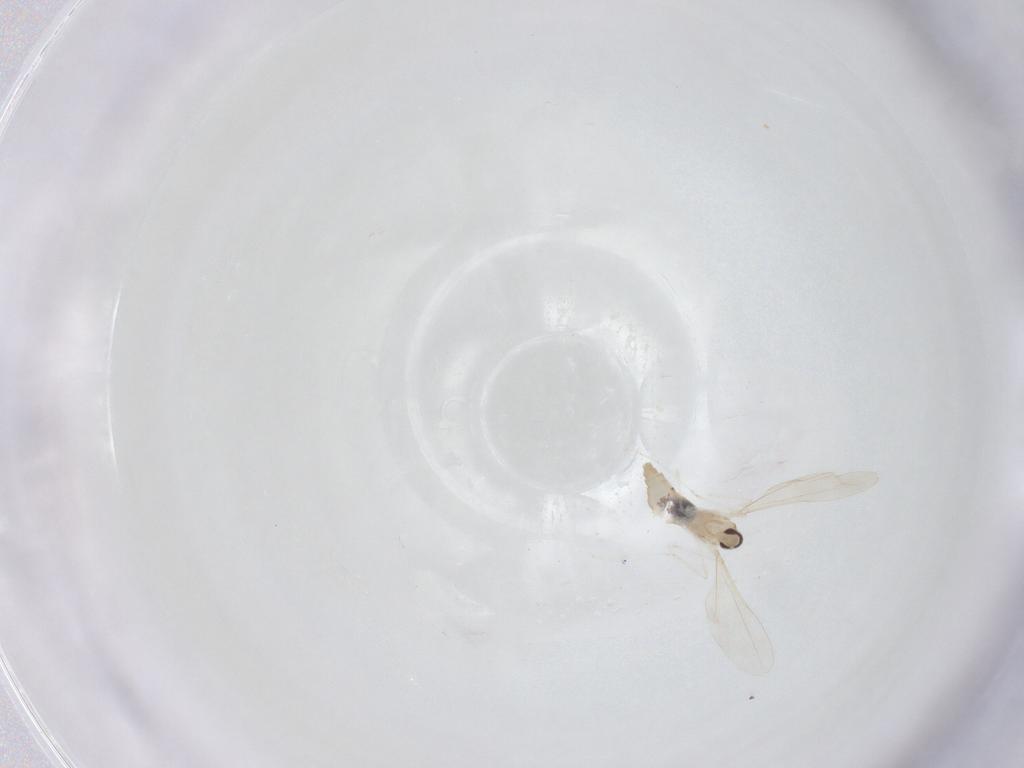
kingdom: Animalia
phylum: Arthropoda
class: Insecta
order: Diptera
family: Cecidomyiidae
